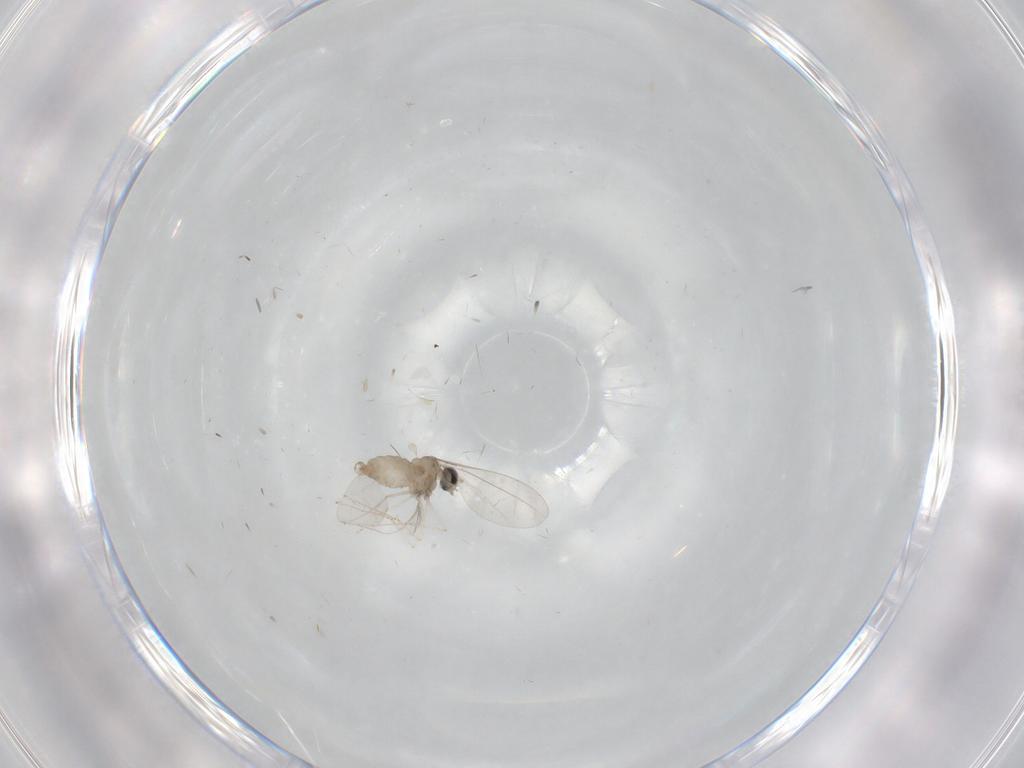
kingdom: Animalia
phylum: Arthropoda
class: Insecta
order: Diptera
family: Cecidomyiidae
